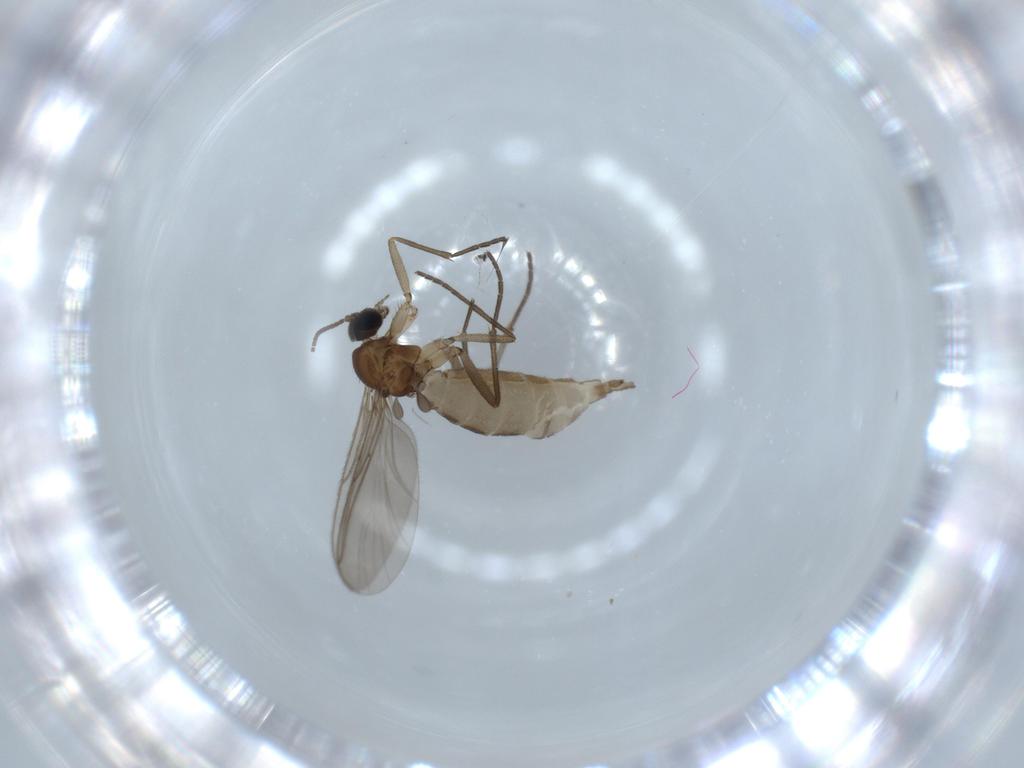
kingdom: Animalia
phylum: Arthropoda
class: Insecta
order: Diptera
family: Sciaridae
